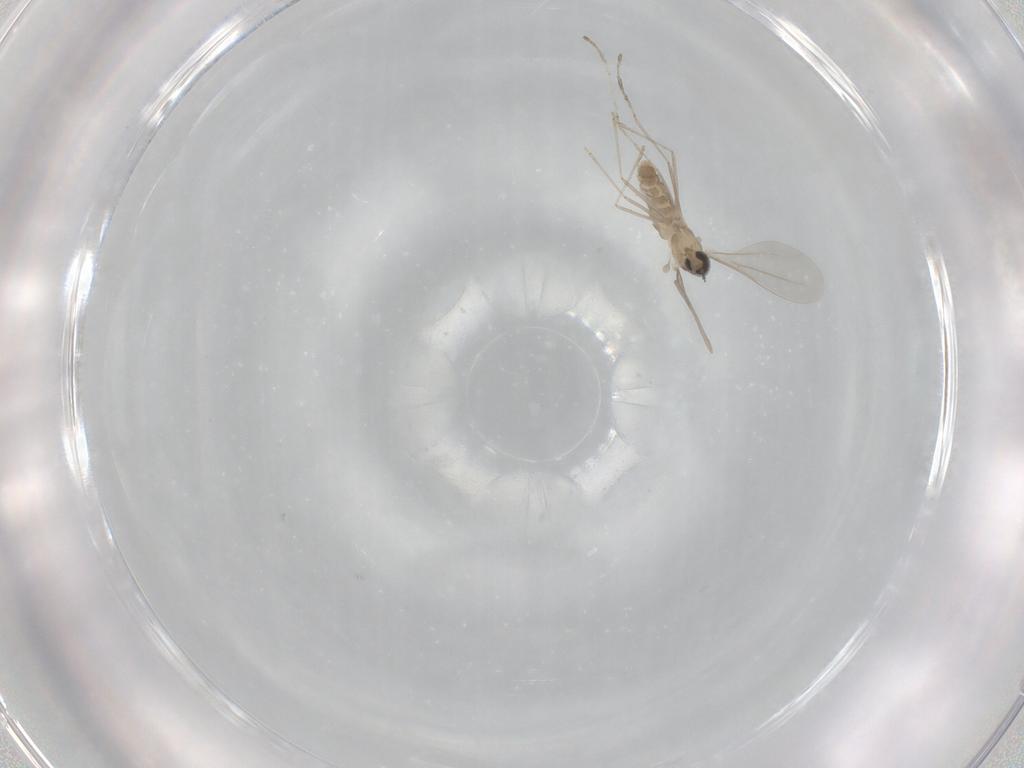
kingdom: Animalia
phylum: Arthropoda
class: Insecta
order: Diptera
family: Cecidomyiidae
